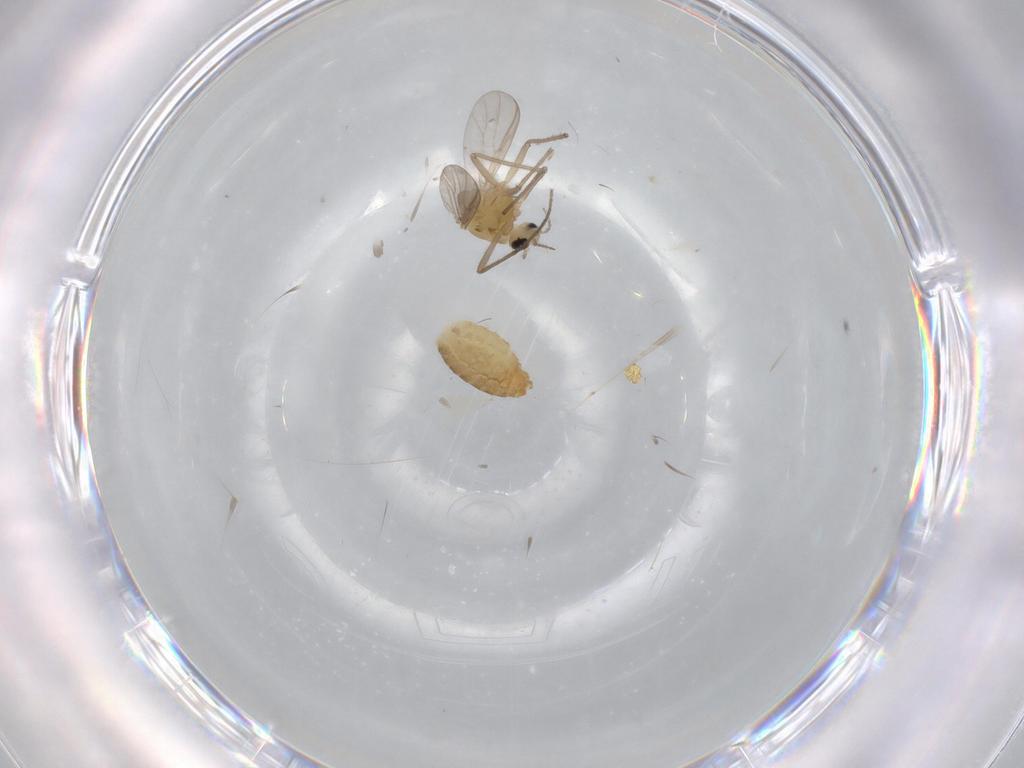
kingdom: Animalia
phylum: Arthropoda
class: Insecta
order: Diptera
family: Chironomidae
